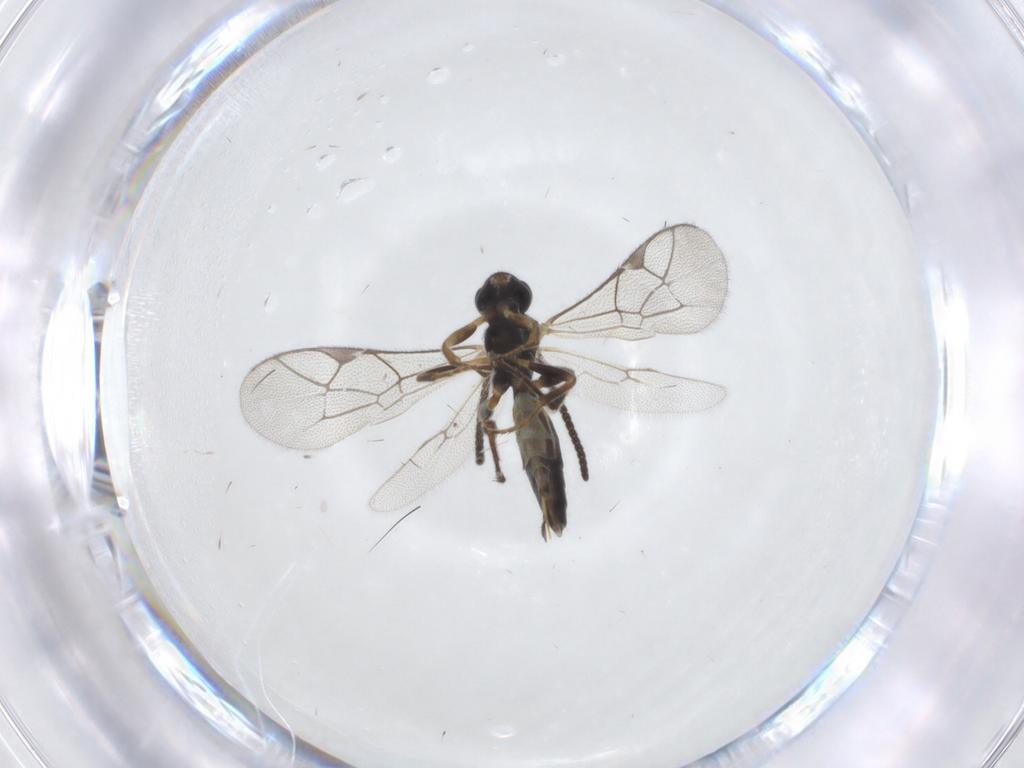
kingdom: Animalia
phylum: Arthropoda
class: Insecta
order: Hymenoptera
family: Ichneumonidae
